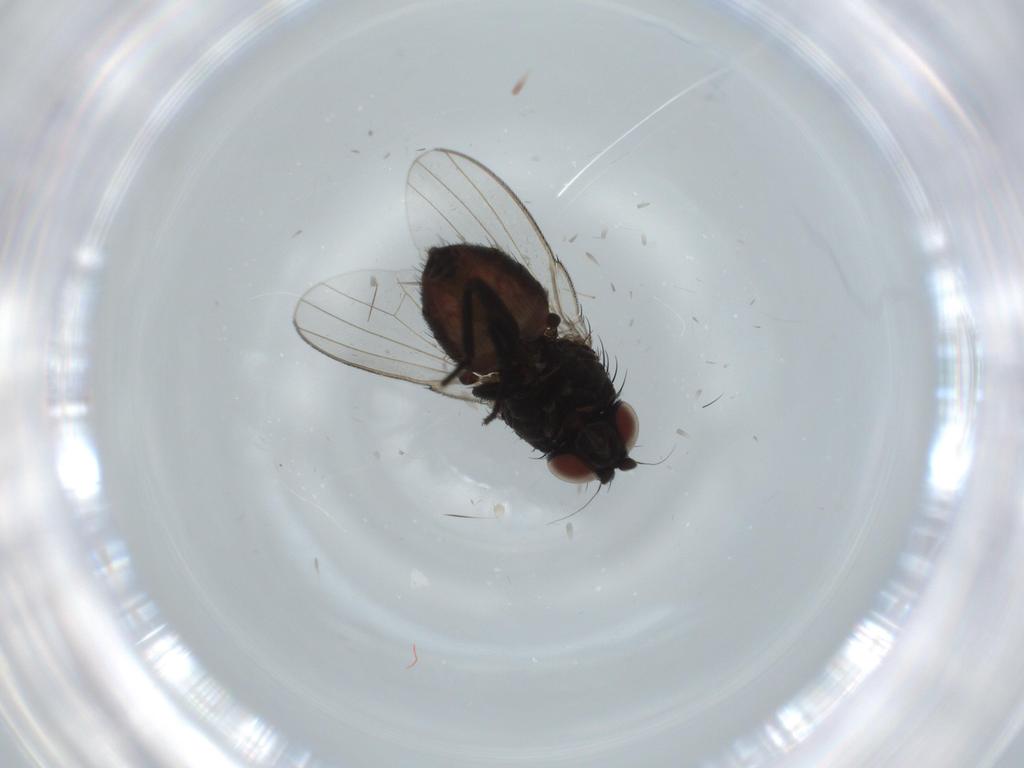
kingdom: Animalia
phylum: Arthropoda
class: Insecta
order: Diptera
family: Milichiidae
